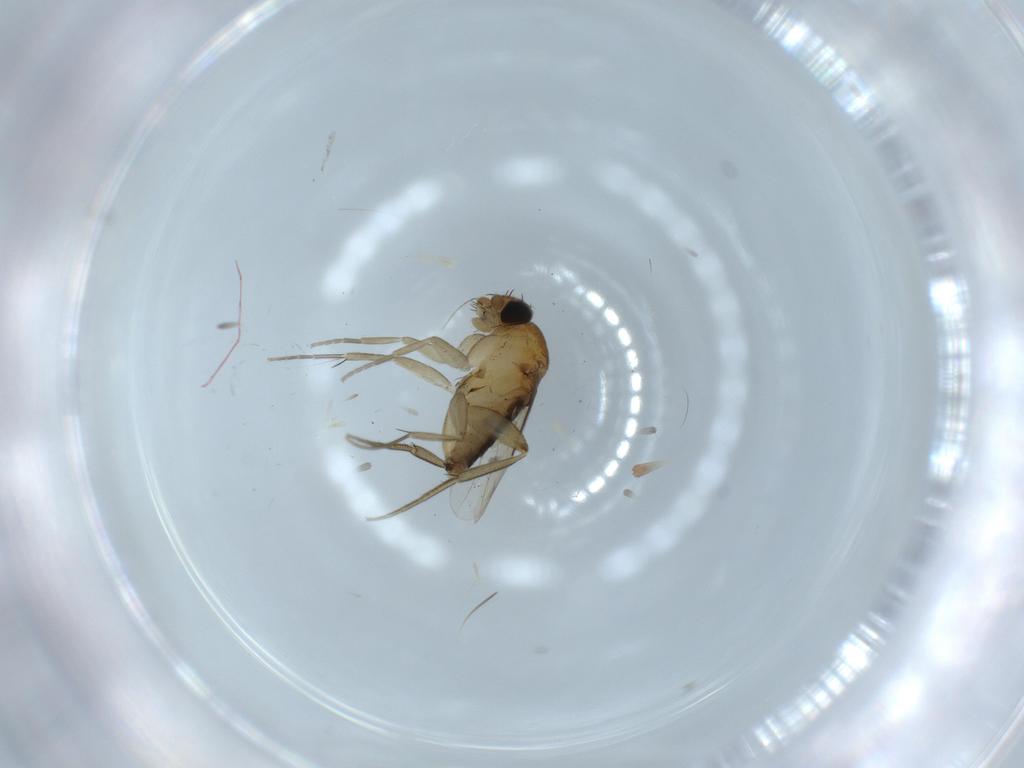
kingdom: Animalia
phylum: Arthropoda
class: Insecta
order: Diptera
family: Phoridae
